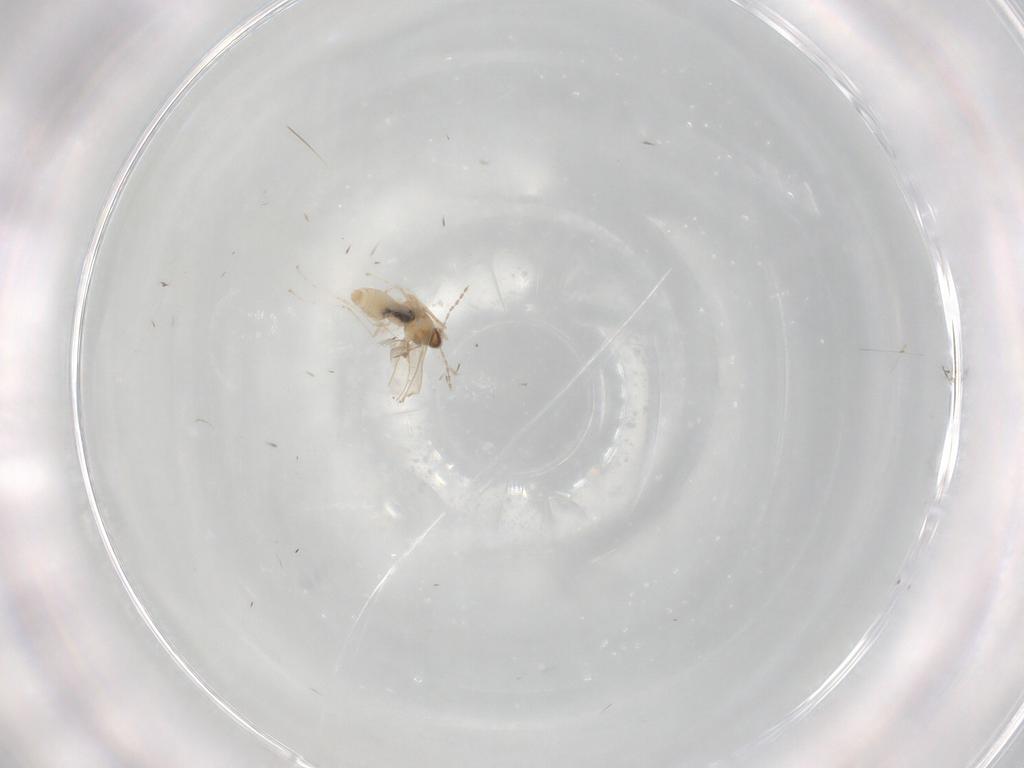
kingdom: Animalia
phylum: Arthropoda
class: Insecta
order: Diptera
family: Cecidomyiidae
